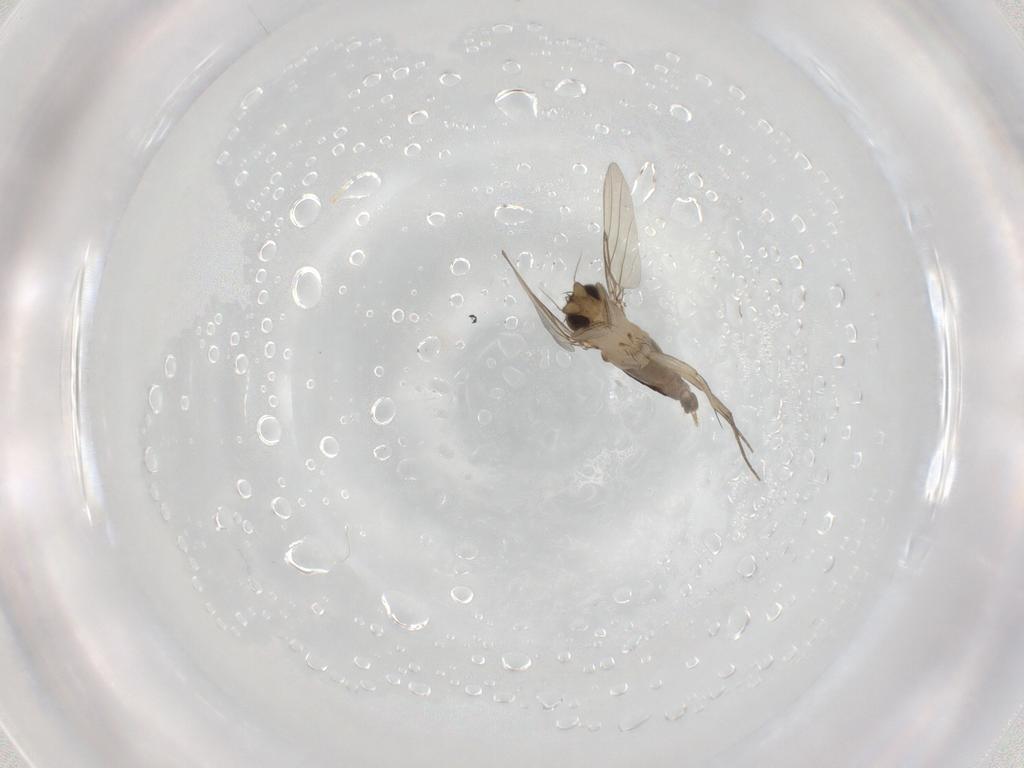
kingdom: Animalia
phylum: Arthropoda
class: Insecta
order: Diptera
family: Phoridae
